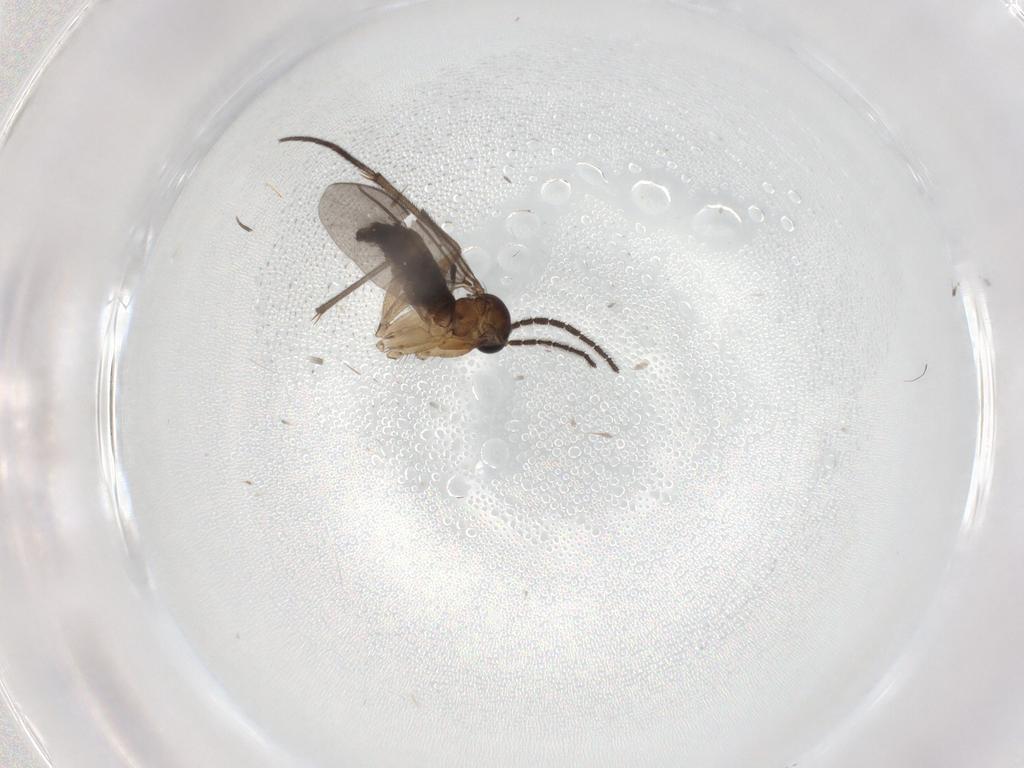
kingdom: Animalia
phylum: Arthropoda
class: Insecta
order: Diptera
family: Sciaridae
